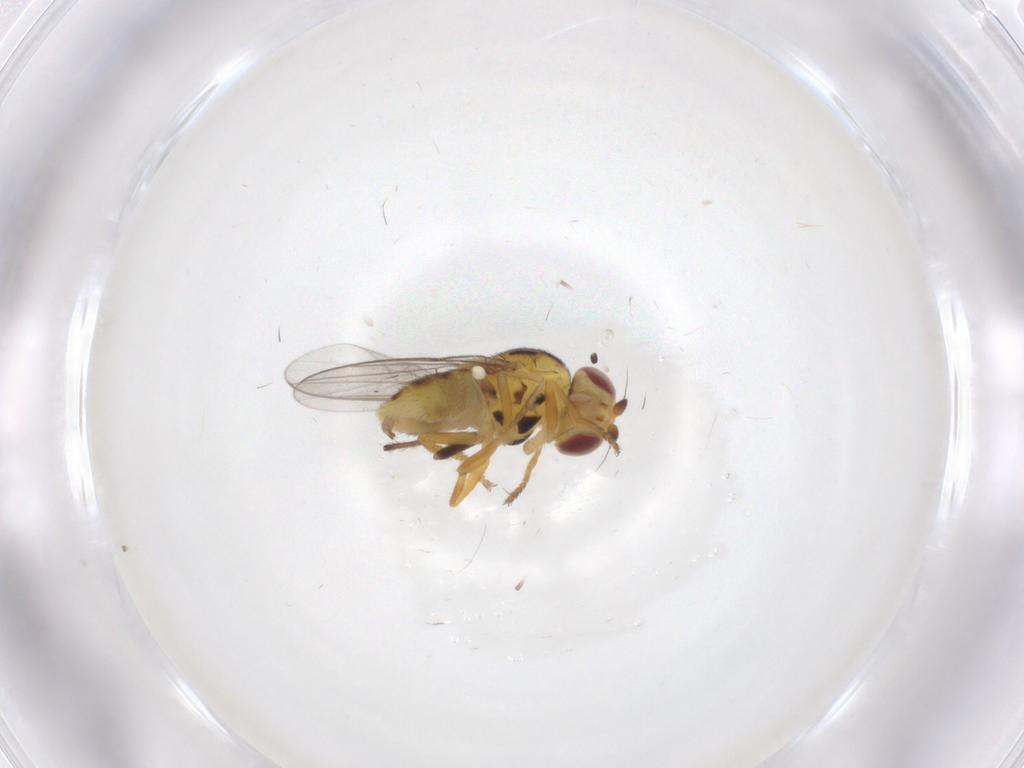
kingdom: Animalia
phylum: Arthropoda
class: Insecta
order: Diptera
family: Chloropidae
